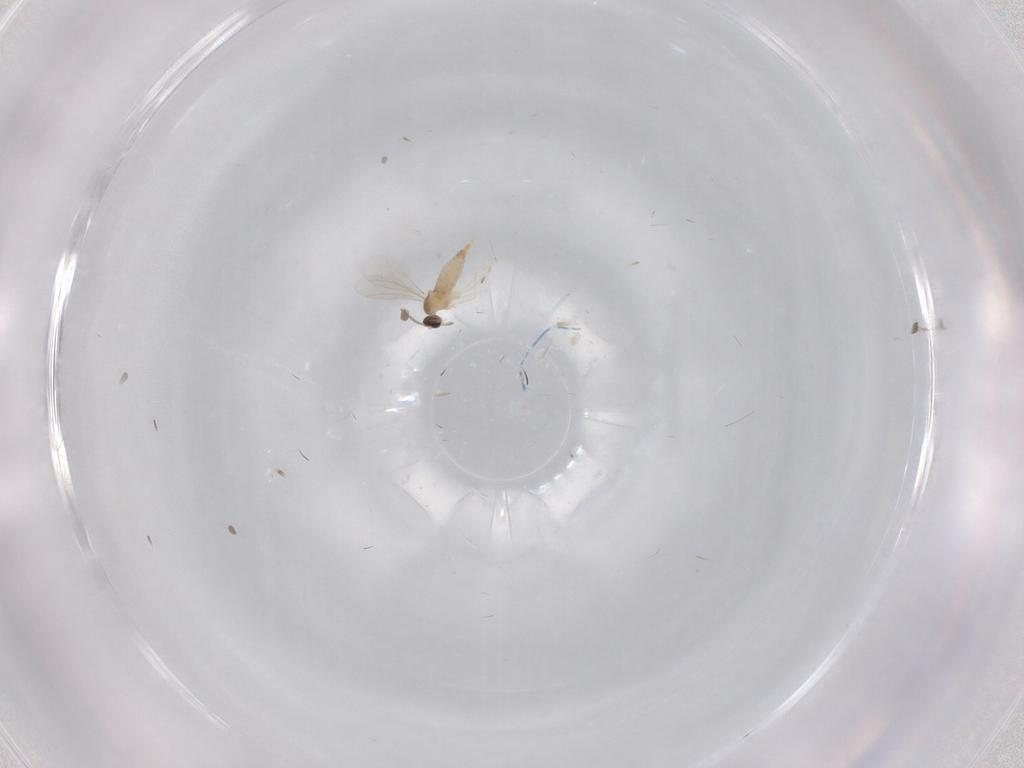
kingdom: Animalia
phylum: Arthropoda
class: Insecta
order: Diptera
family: Cecidomyiidae
